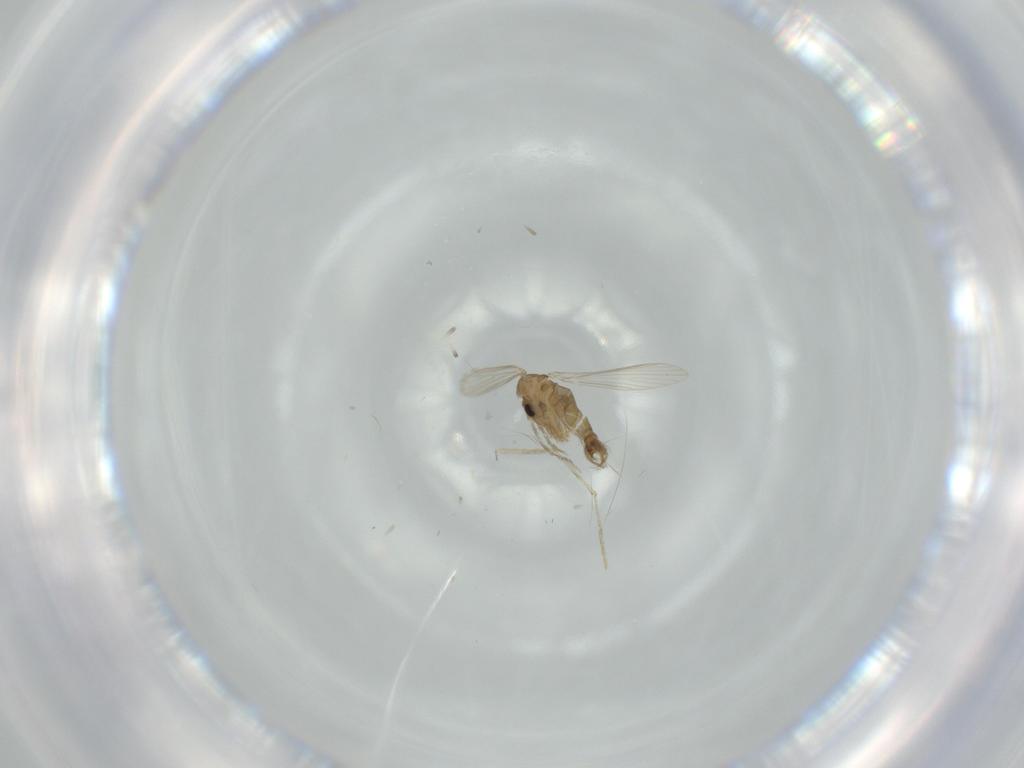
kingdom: Animalia
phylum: Arthropoda
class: Insecta
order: Diptera
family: Psychodidae
